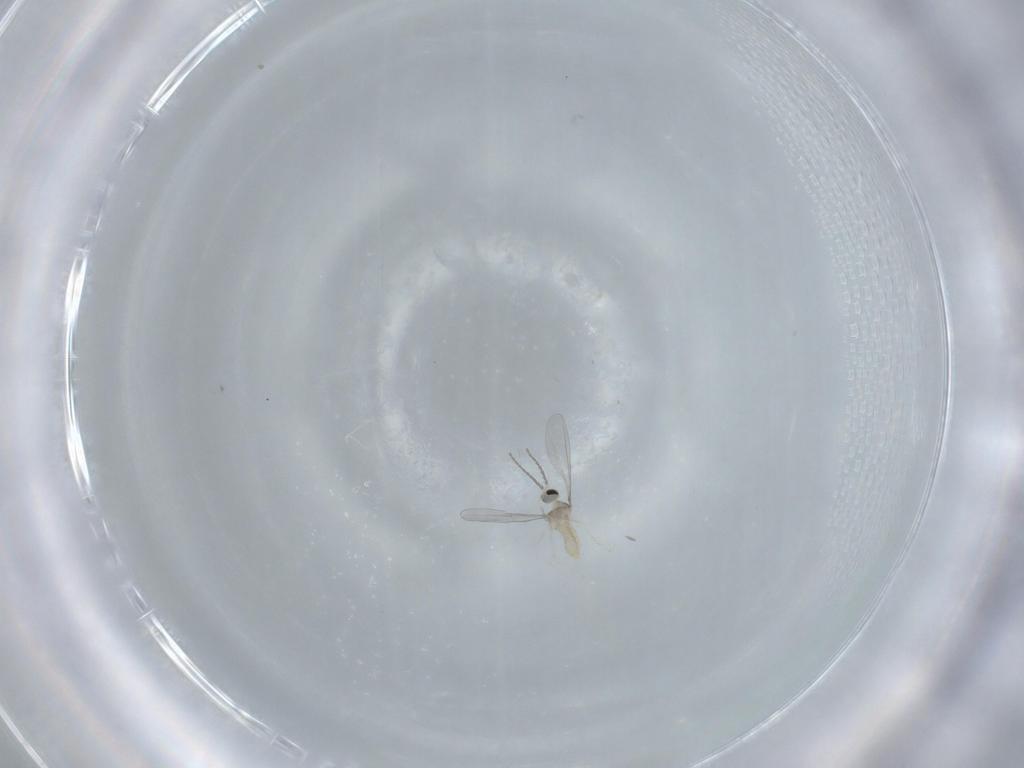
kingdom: Animalia
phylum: Arthropoda
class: Insecta
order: Diptera
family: Cecidomyiidae
